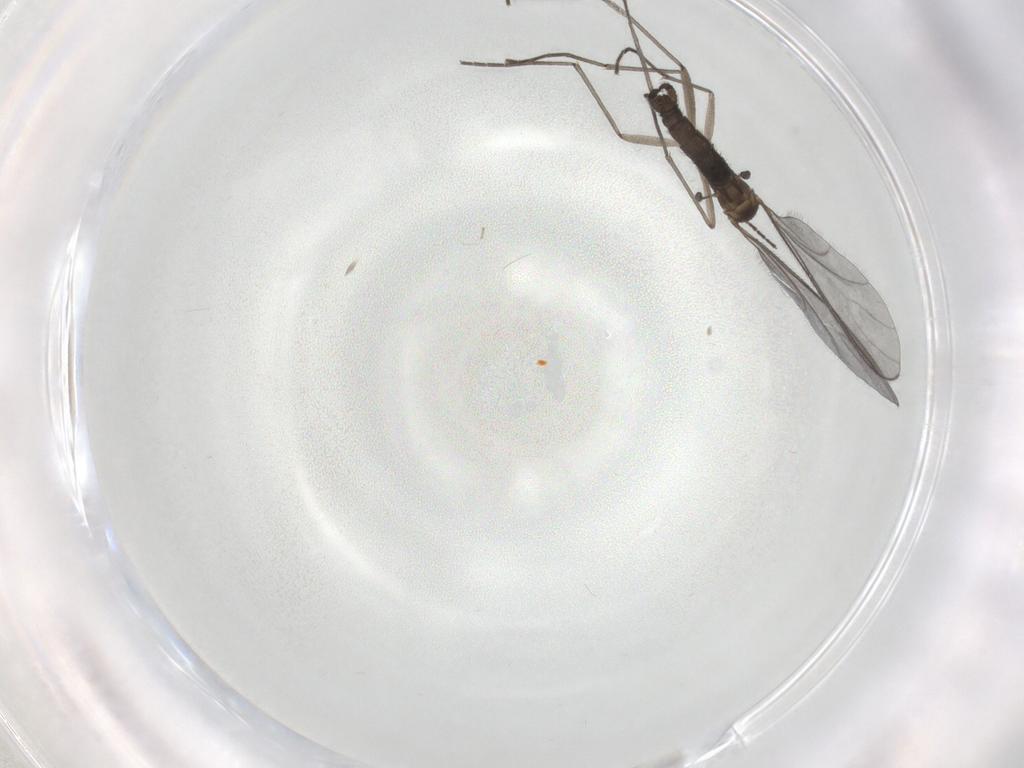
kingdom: Animalia
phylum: Arthropoda
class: Insecta
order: Diptera
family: Sciaridae
